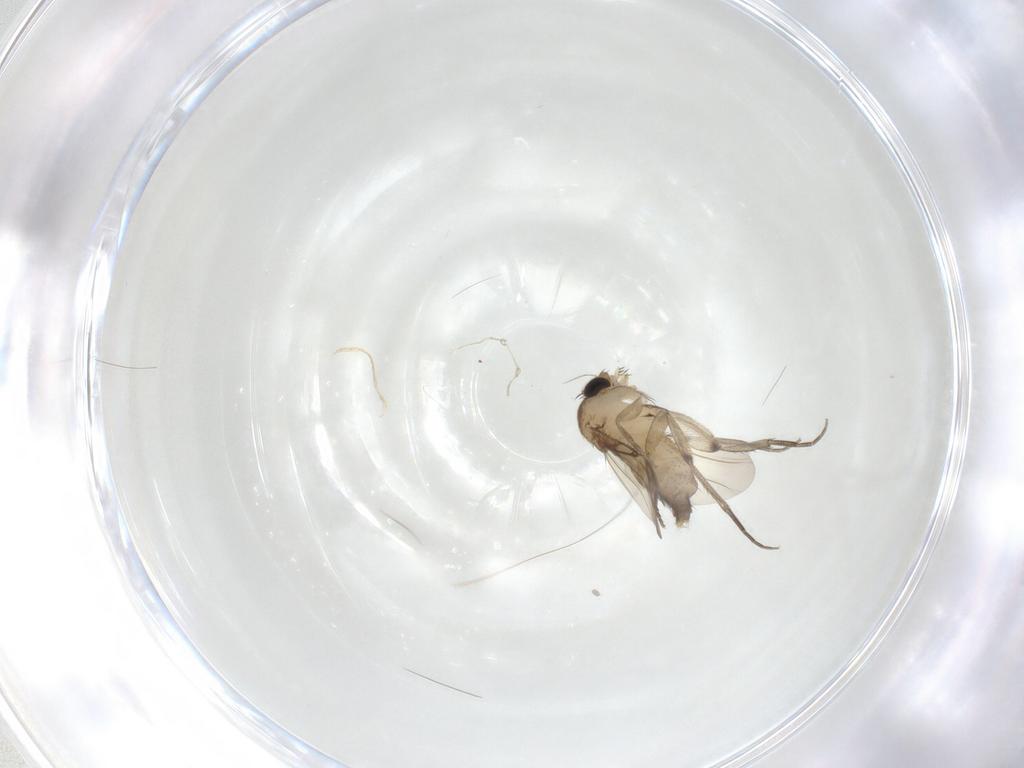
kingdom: Animalia
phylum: Arthropoda
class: Insecta
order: Diptera
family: Phoridae
